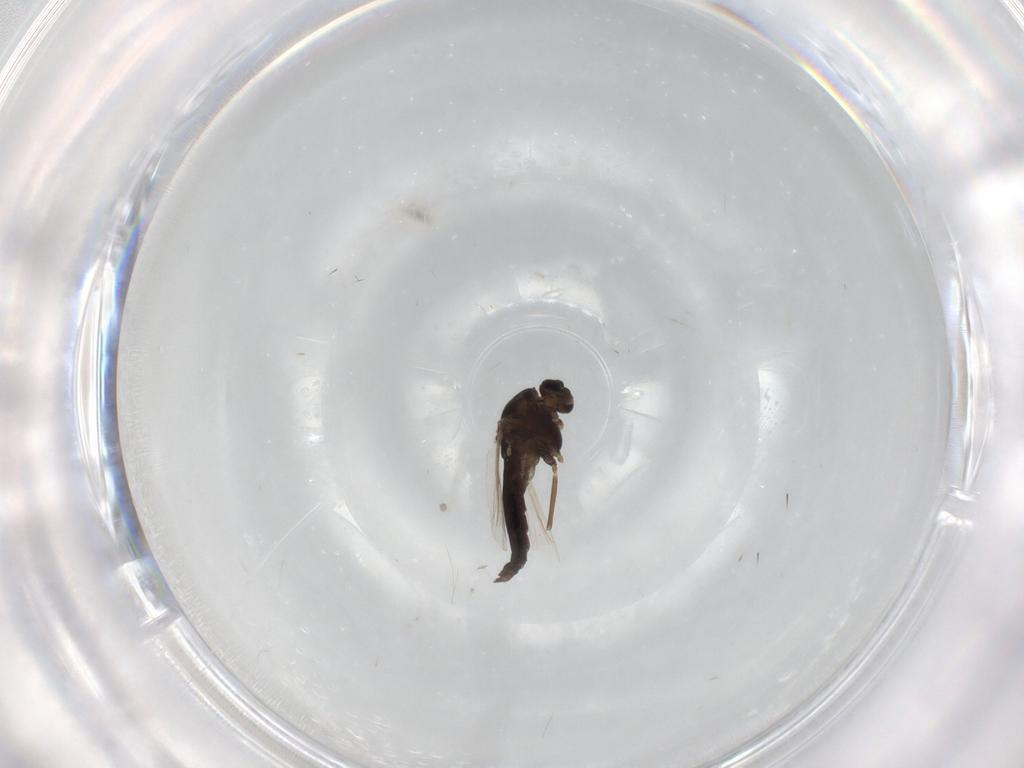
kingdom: Animalia
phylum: Arthropoda
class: Insecta
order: Diptera
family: Chironomidae
